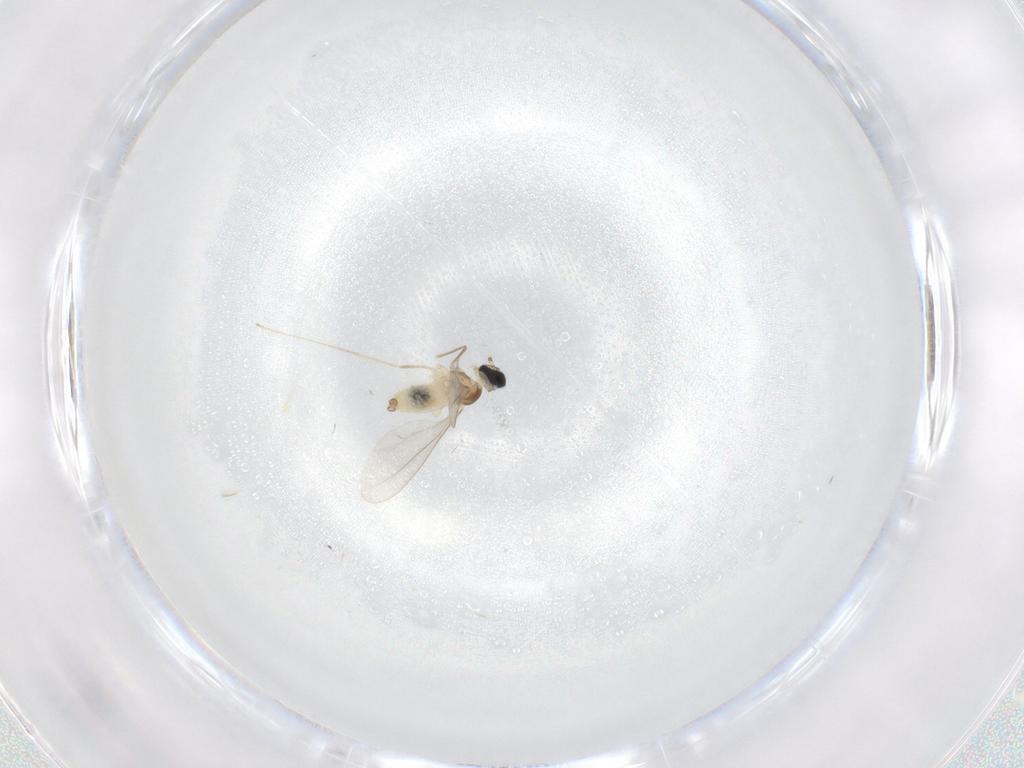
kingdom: Animalia
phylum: Arthropoda
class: Insecta
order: Diptera
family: Cecidomyiidae
